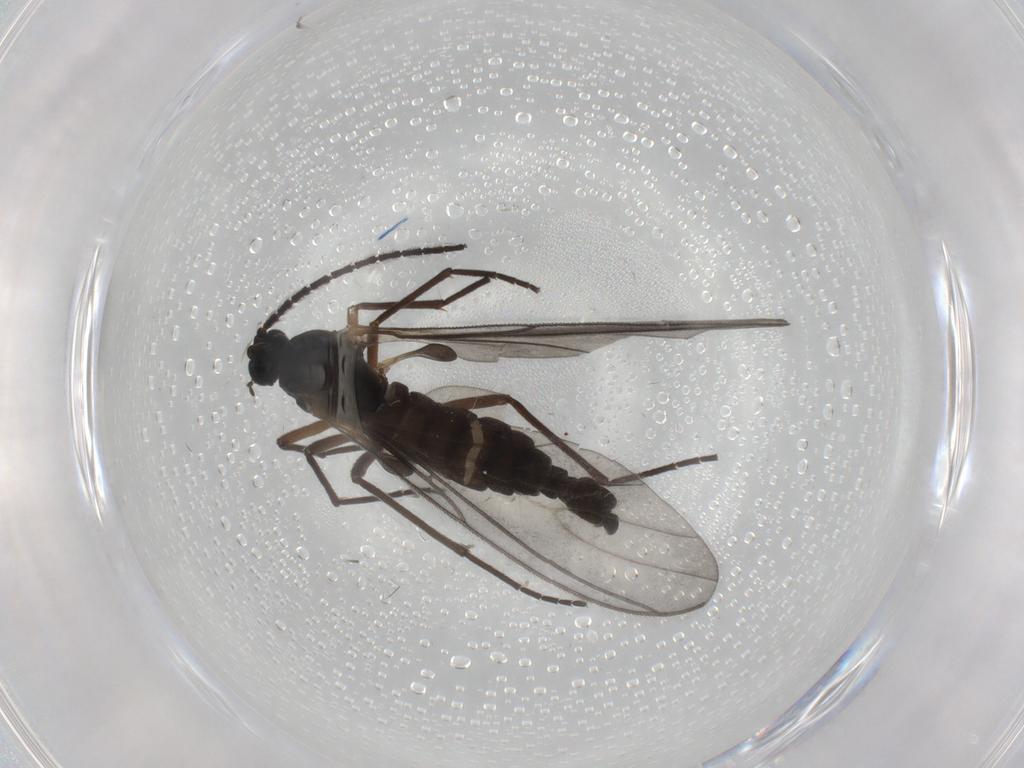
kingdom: Animalia
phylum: Arthropoda
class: Insecta
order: Diptera
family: Sciaridae
